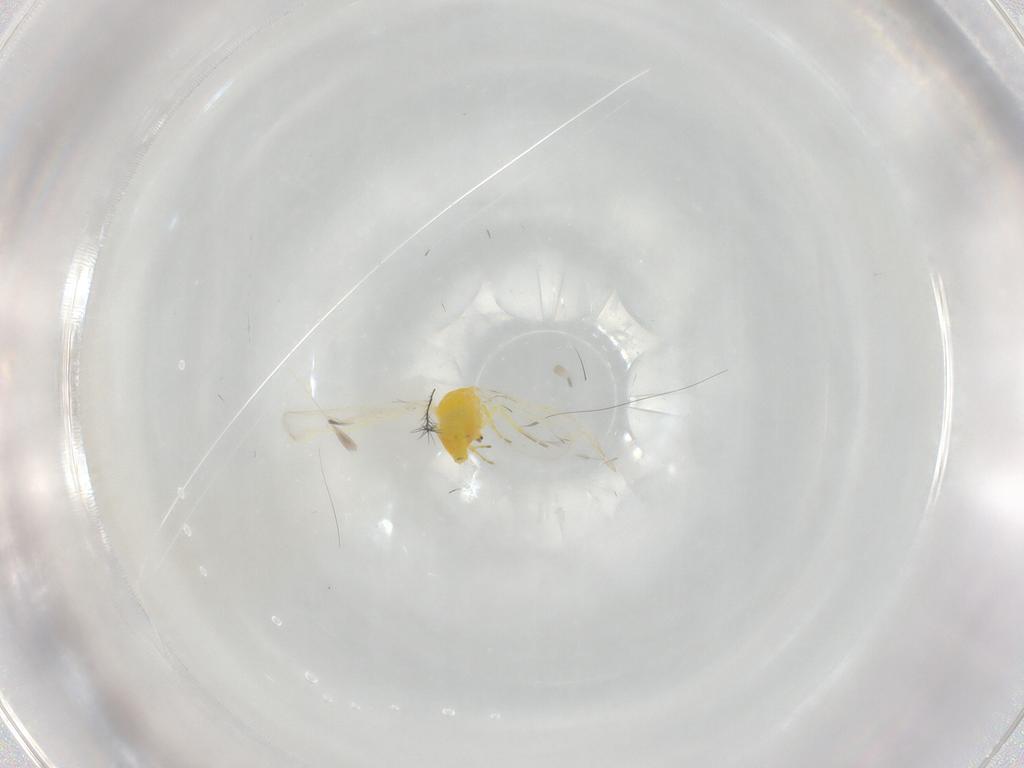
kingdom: Animalia
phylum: Arthropoda
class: Insecta
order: Hemiptera
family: Aleyrodidae
